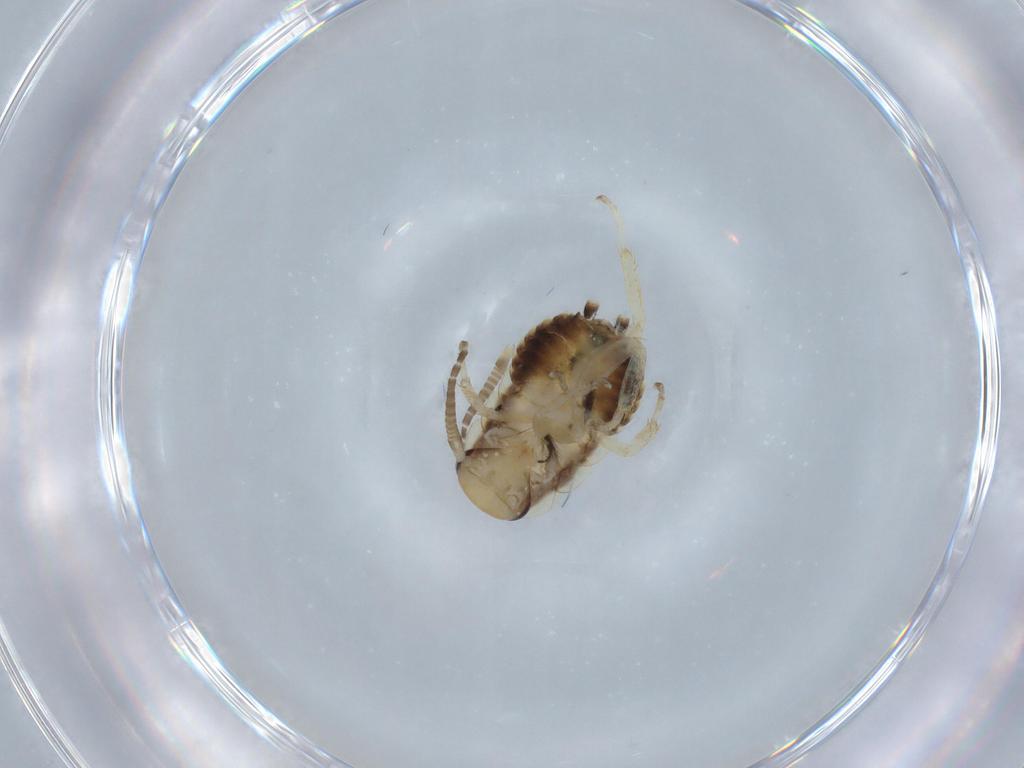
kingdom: Animalia
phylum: Arthropoda
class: Insecta
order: Blattodea
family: Ectobiidae
